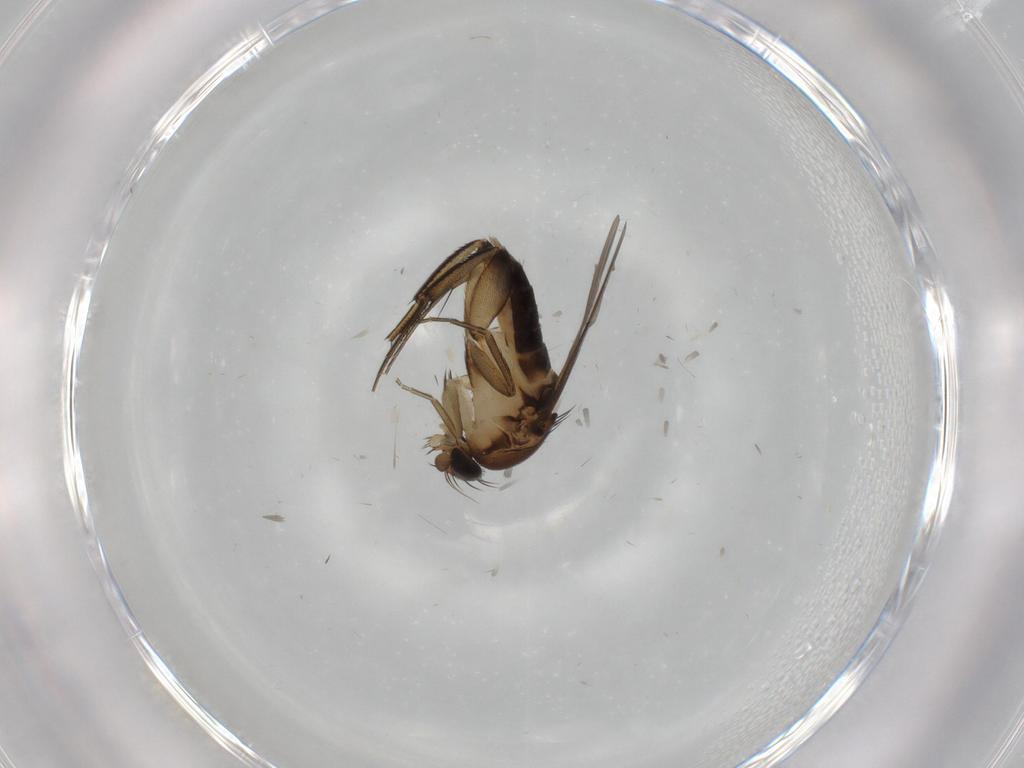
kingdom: Animalia
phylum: Arthropoda
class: Insecta
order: Diptera
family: Phoridae
